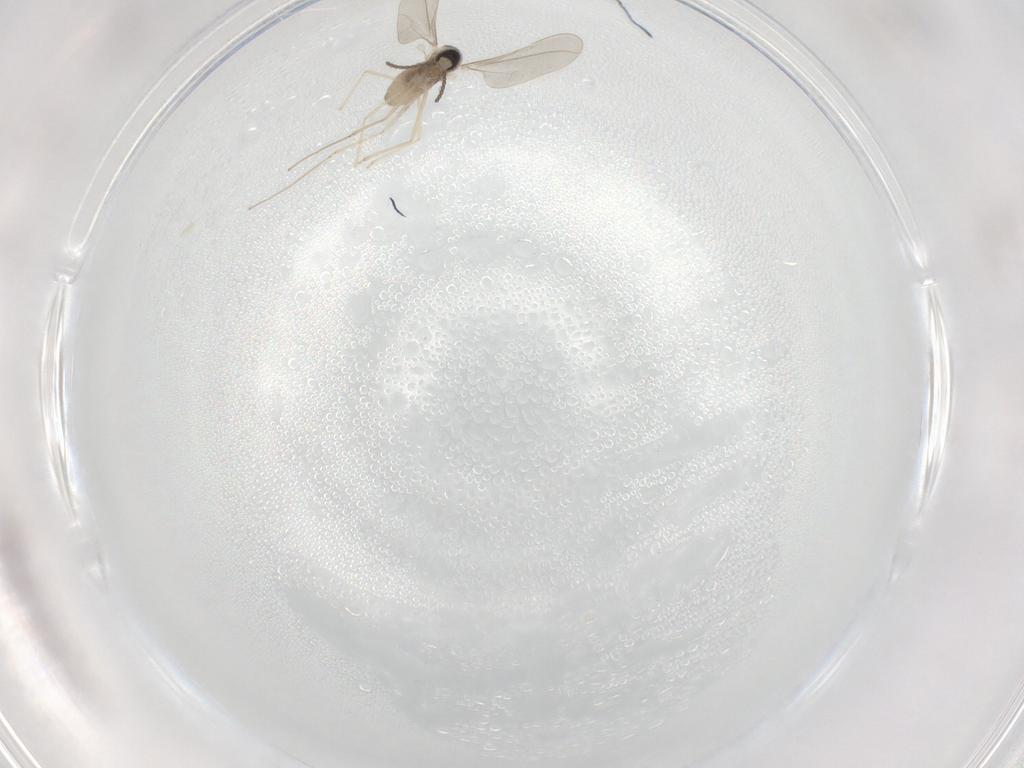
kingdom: Animalia
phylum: Arthropoda
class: Insecta
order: Diptera
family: Cecidomyiidae
